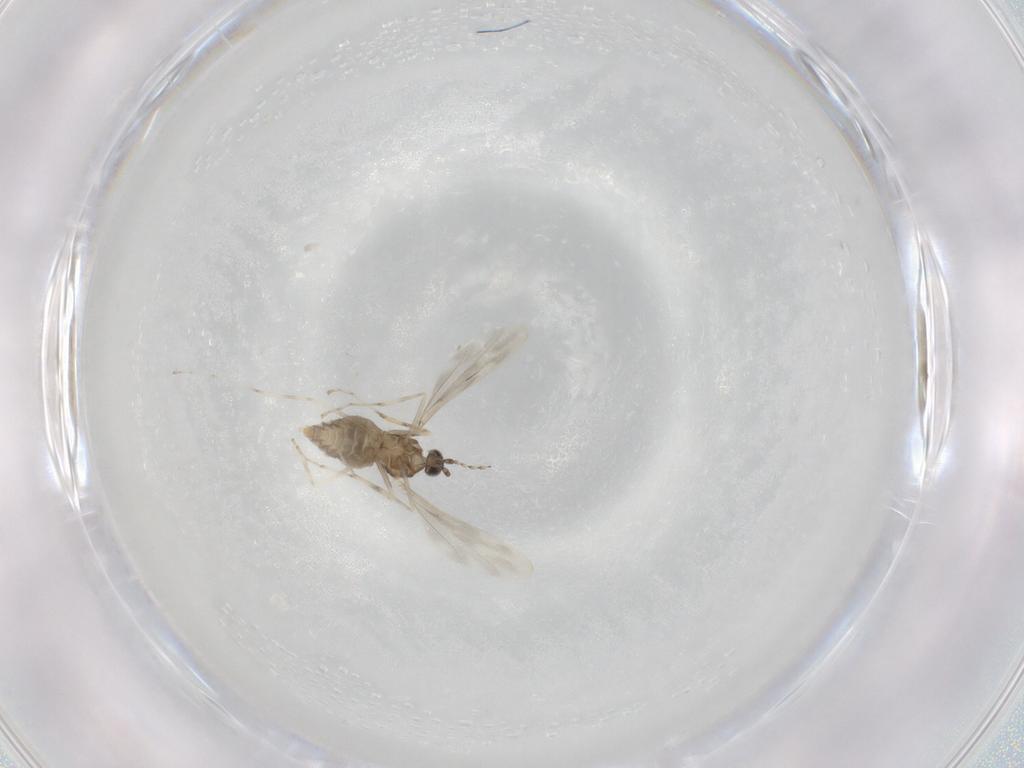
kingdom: Animalia
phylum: Arthropoda
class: Insecta
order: Diptera
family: Cecidomyiidae
